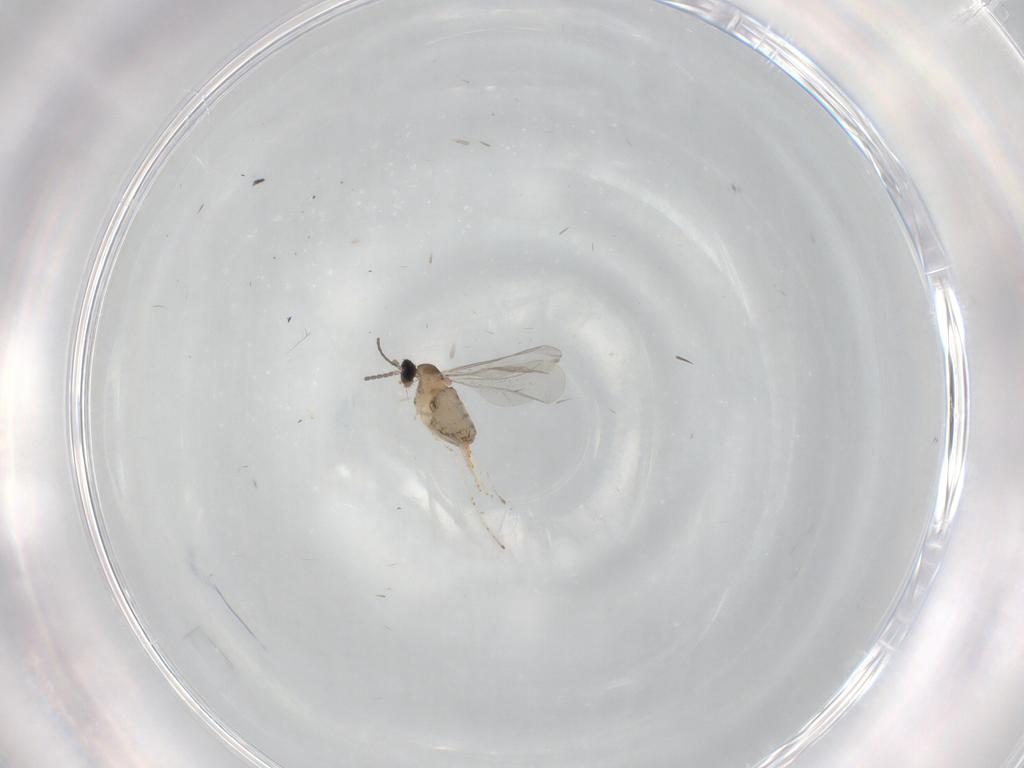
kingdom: Animalia
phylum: Arthropoda
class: Insecta
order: Diptera
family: Cecidomyiidae
